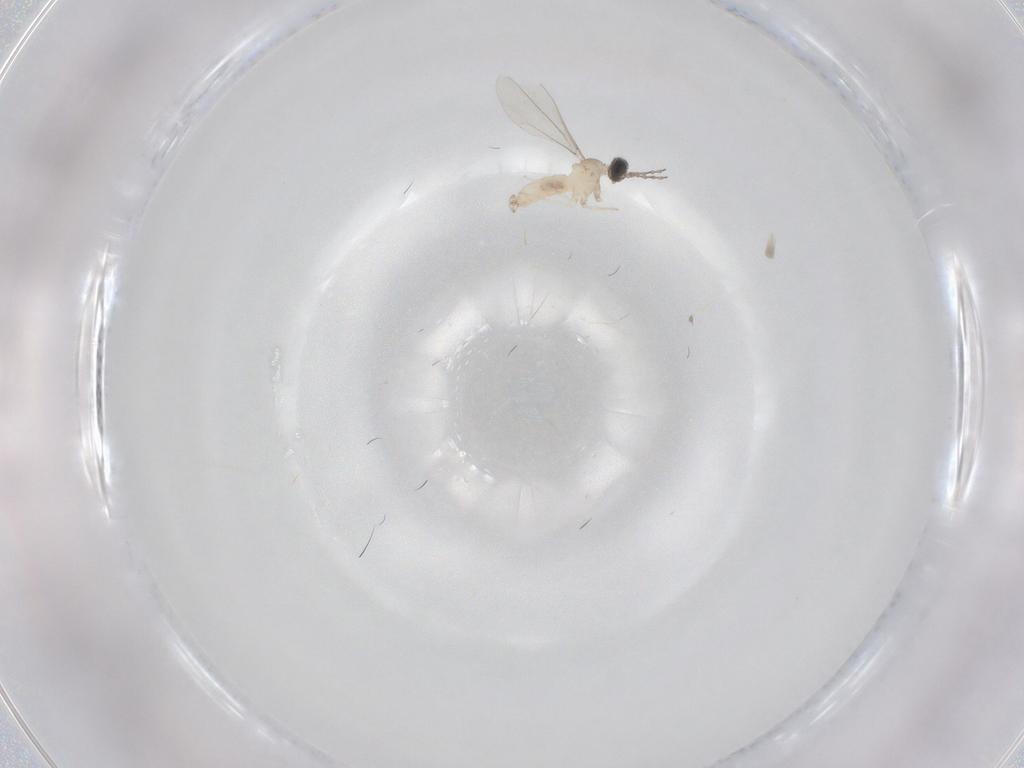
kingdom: Animalia
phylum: Arthropoda
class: Insecta
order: Diptera
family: Cecidomyiidae
